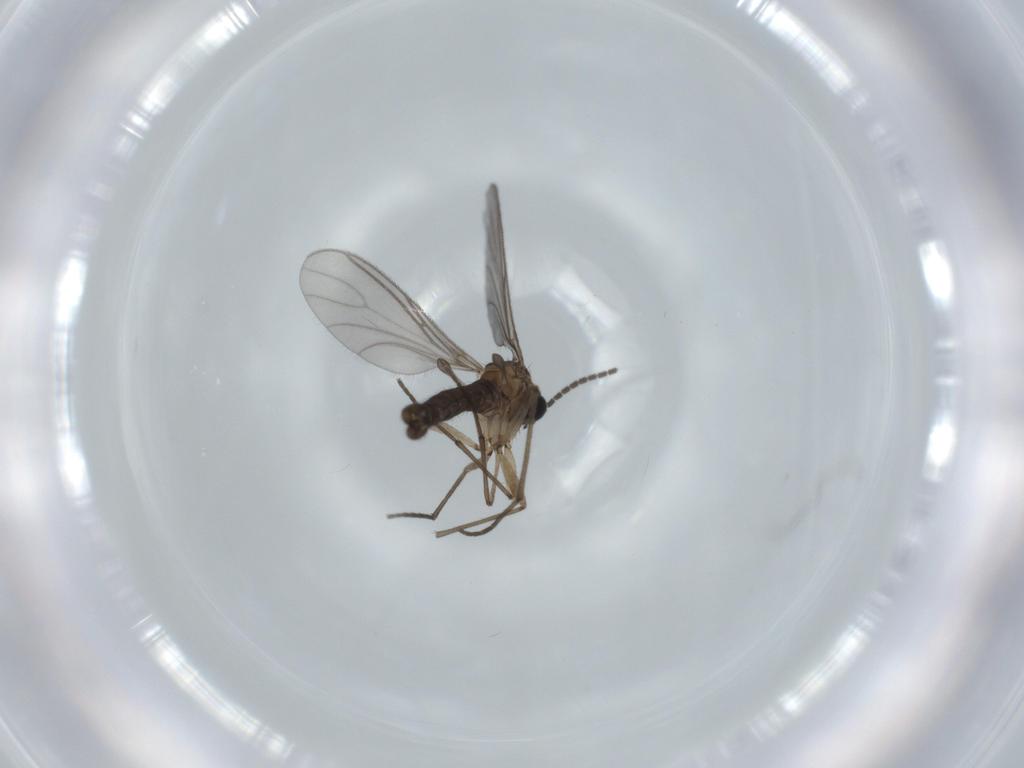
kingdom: Animalia
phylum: Arthropoda
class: Insecta
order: Diptera
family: Sciaridae
